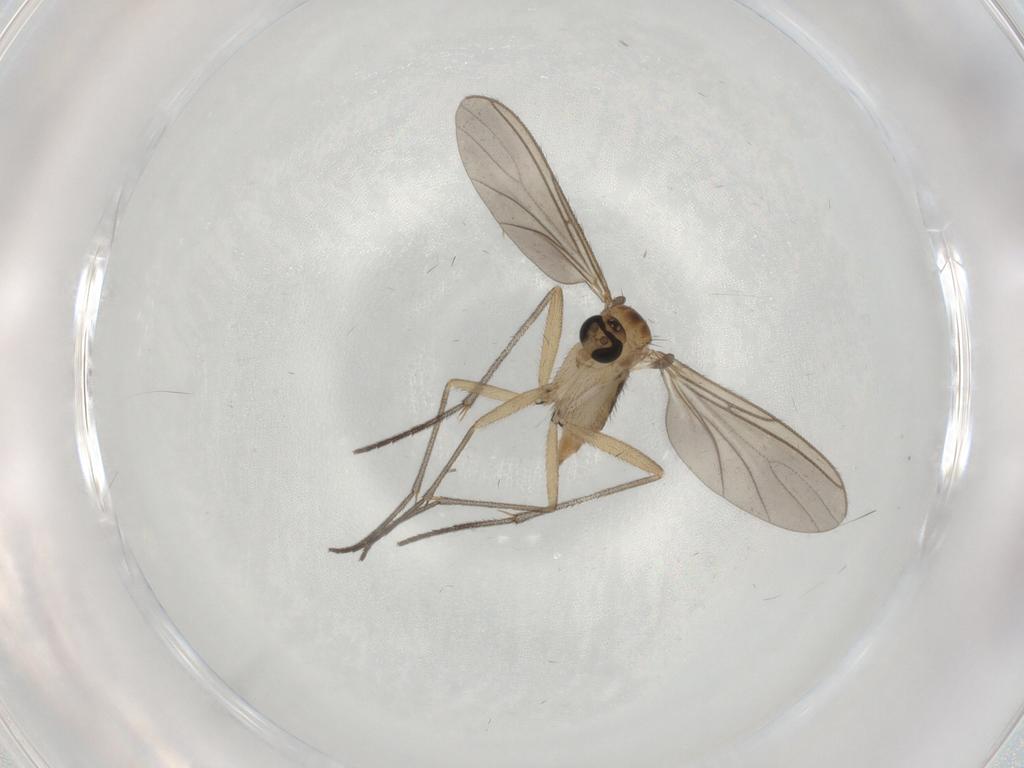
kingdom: Animalia
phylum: Arthropoda
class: Insecta
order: Diptera
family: Sciaridae
